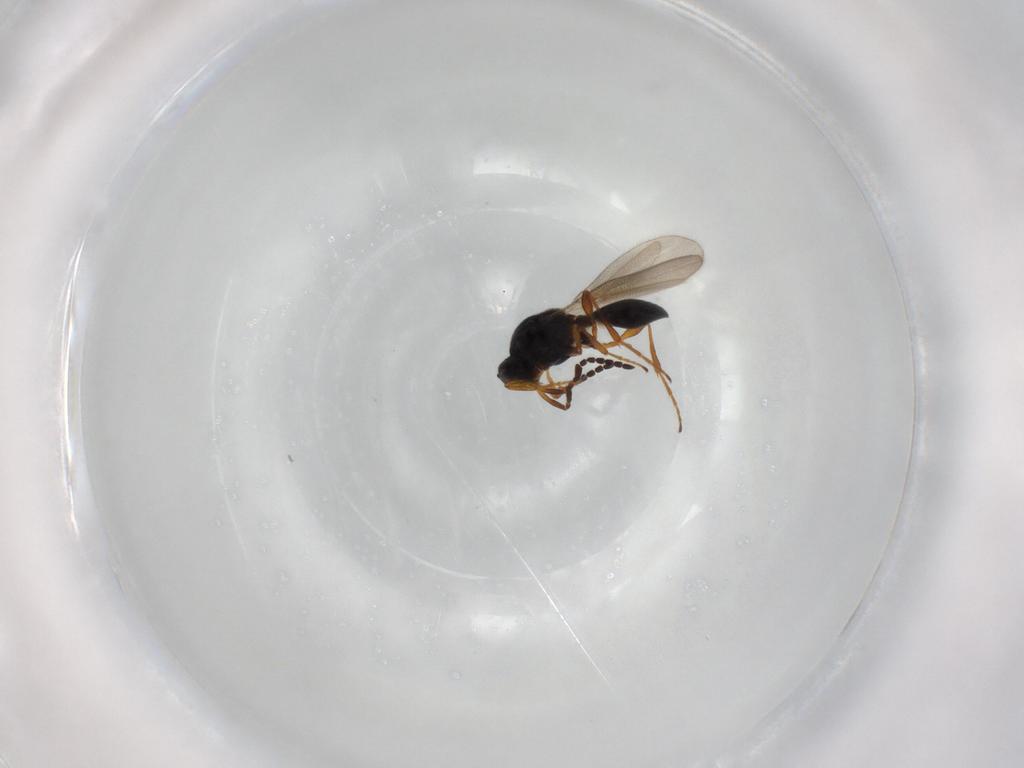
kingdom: Animalia
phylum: Arthropoda
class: Insecta
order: Hymenoptera
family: Platygastridae
